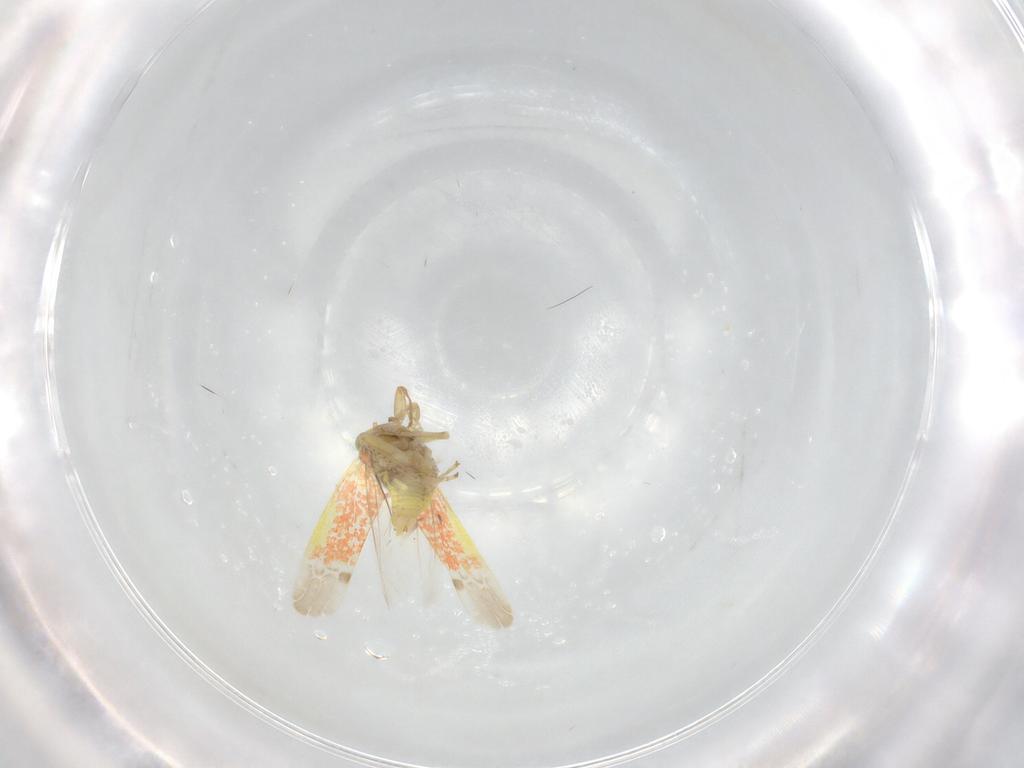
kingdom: Animalia
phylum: Arthropoda
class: Insecta
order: Hemiptera
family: Cicadellidae
